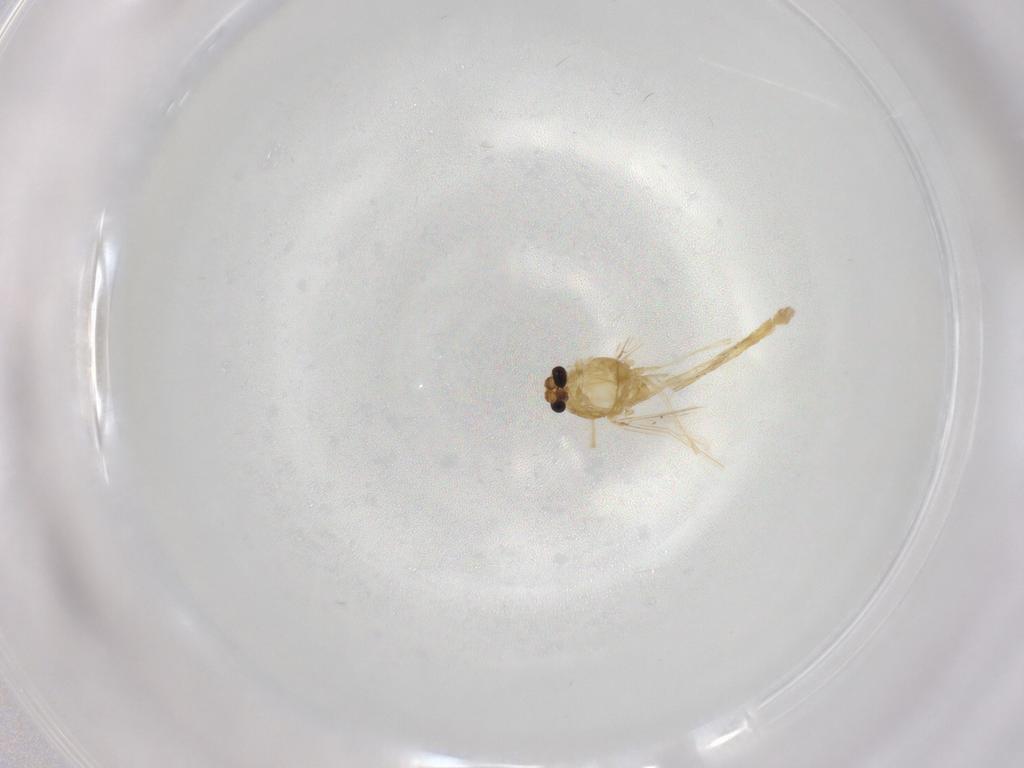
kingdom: Animalia
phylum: Arthropoda
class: Insecta
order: Diptera
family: Chironomidae
